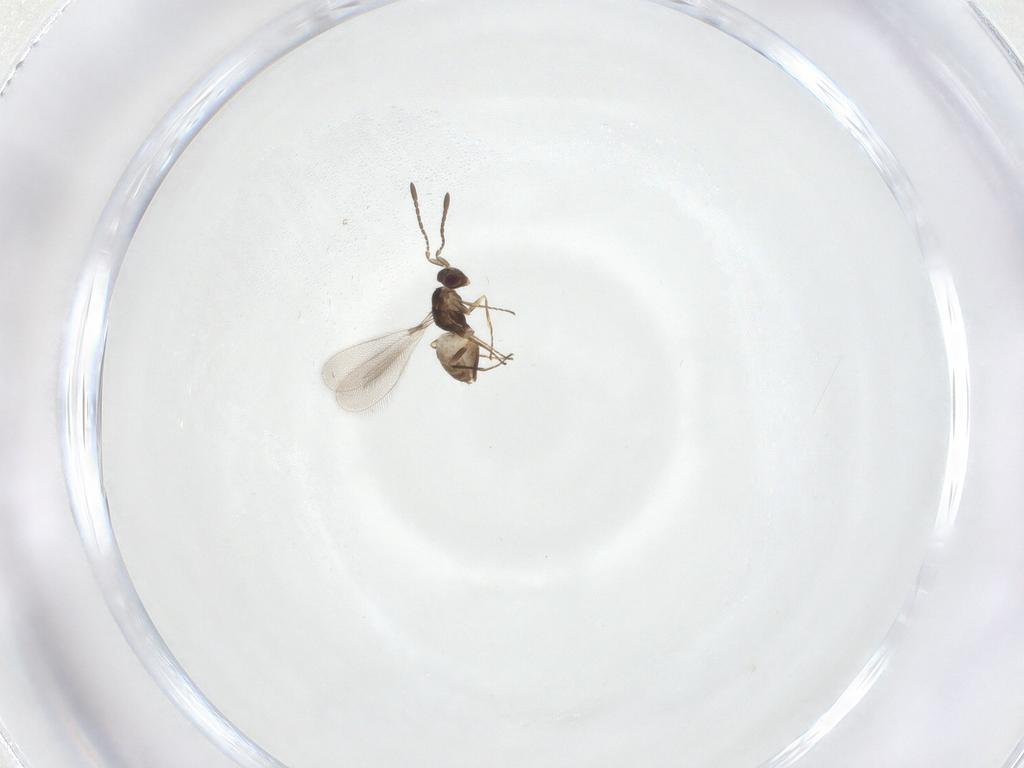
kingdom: Animalia
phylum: Arthropoda
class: Insecta
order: Hymenoptera
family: Mymaridae
